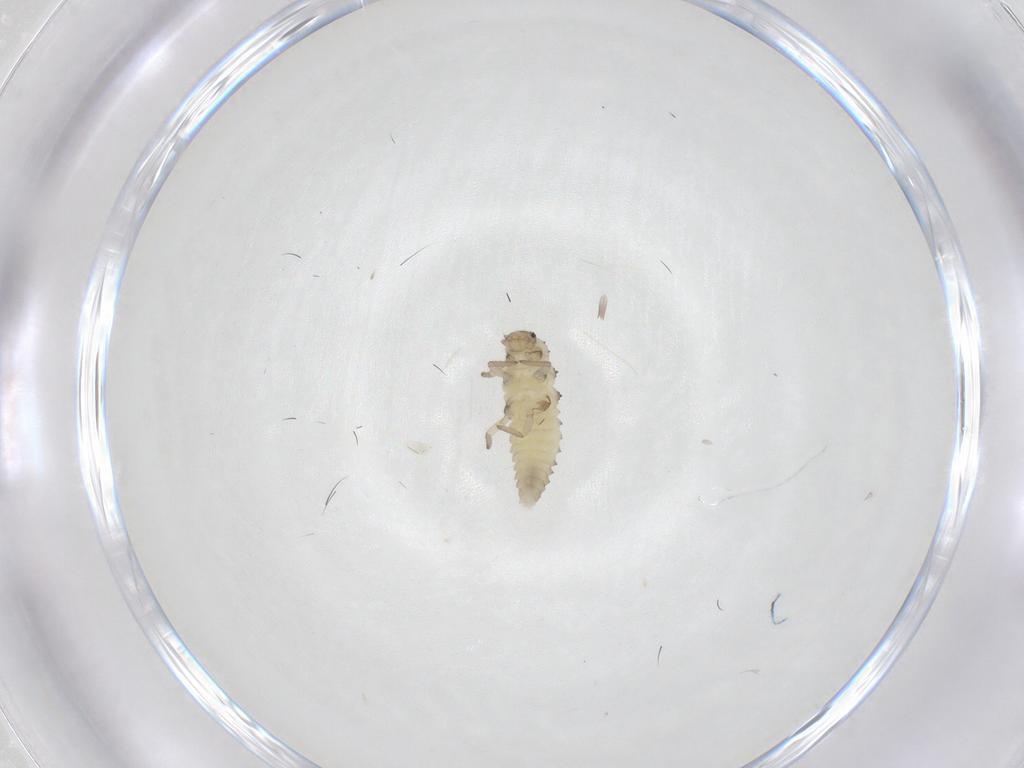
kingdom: Animalia
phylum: Arthropoda
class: Insecta
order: Coleoptera
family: Coccinellidae
